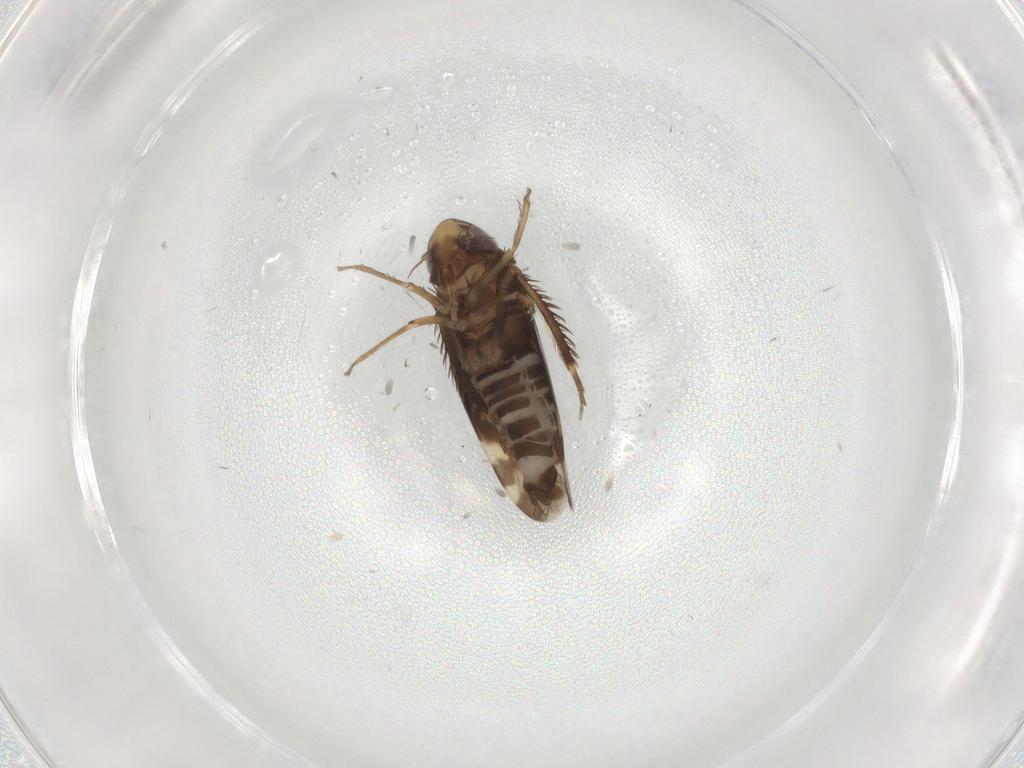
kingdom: Animalia
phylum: Arthropoda
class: Insecta
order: Hemiptera
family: Cicadellidae
